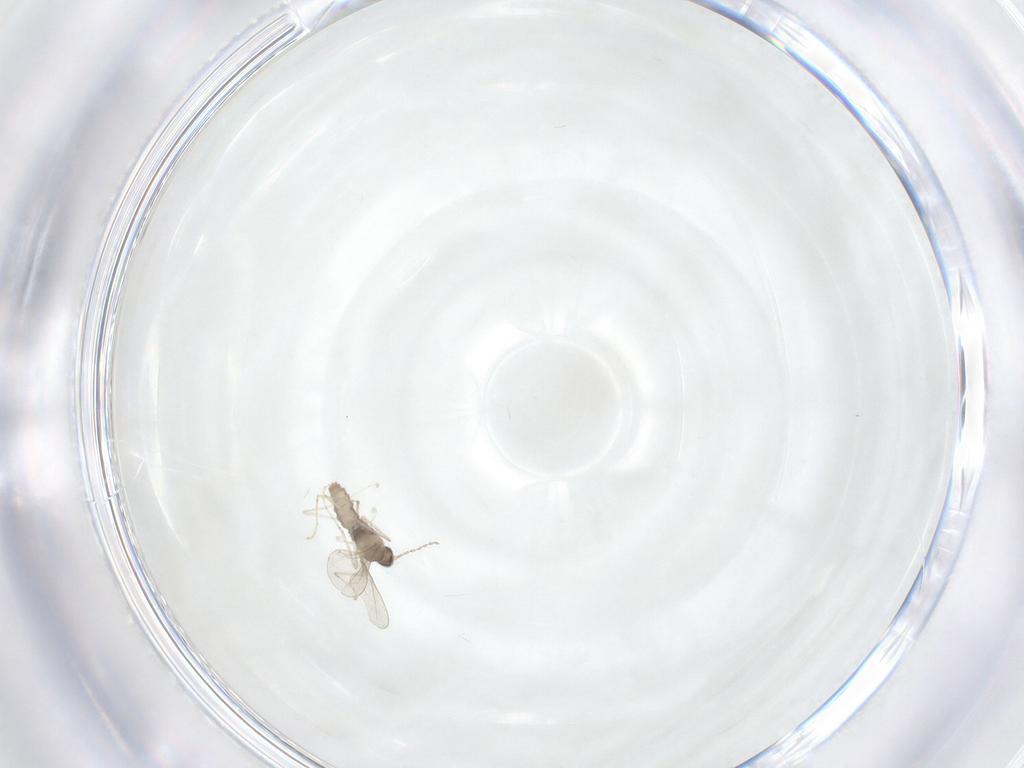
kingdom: Animalia
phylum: Arthropoda
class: Insecta
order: Diptera
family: Cecidomyiidae
